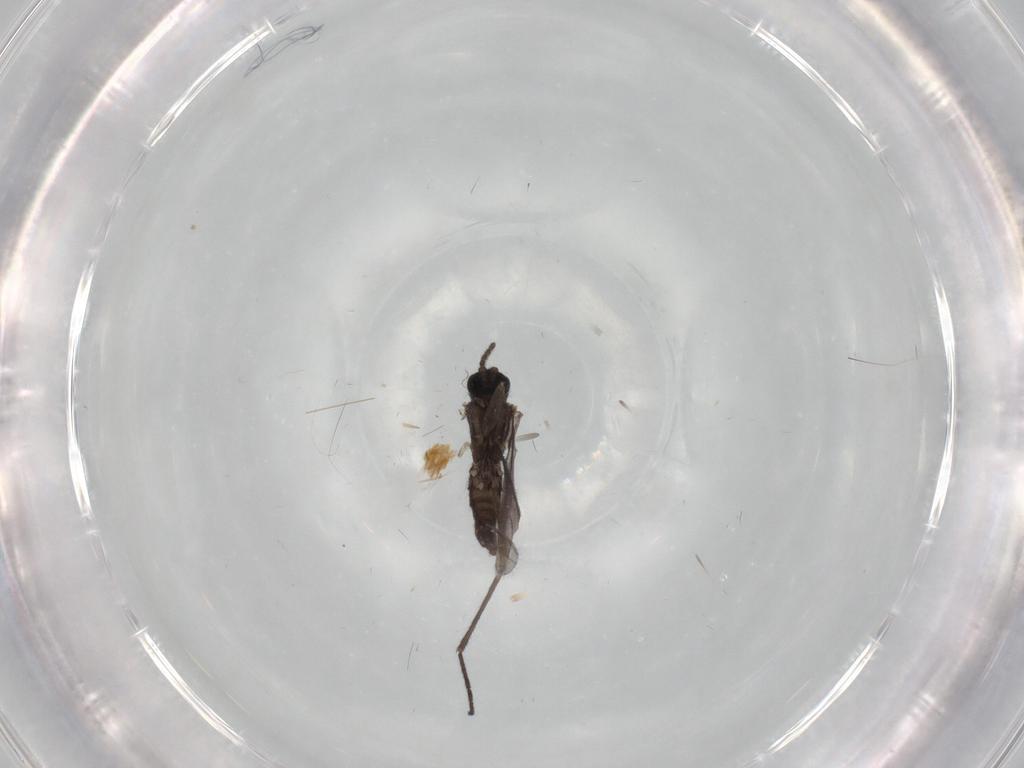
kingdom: Animalia
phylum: Arthropoda
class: Insecta
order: Diptera
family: Sciaridae
